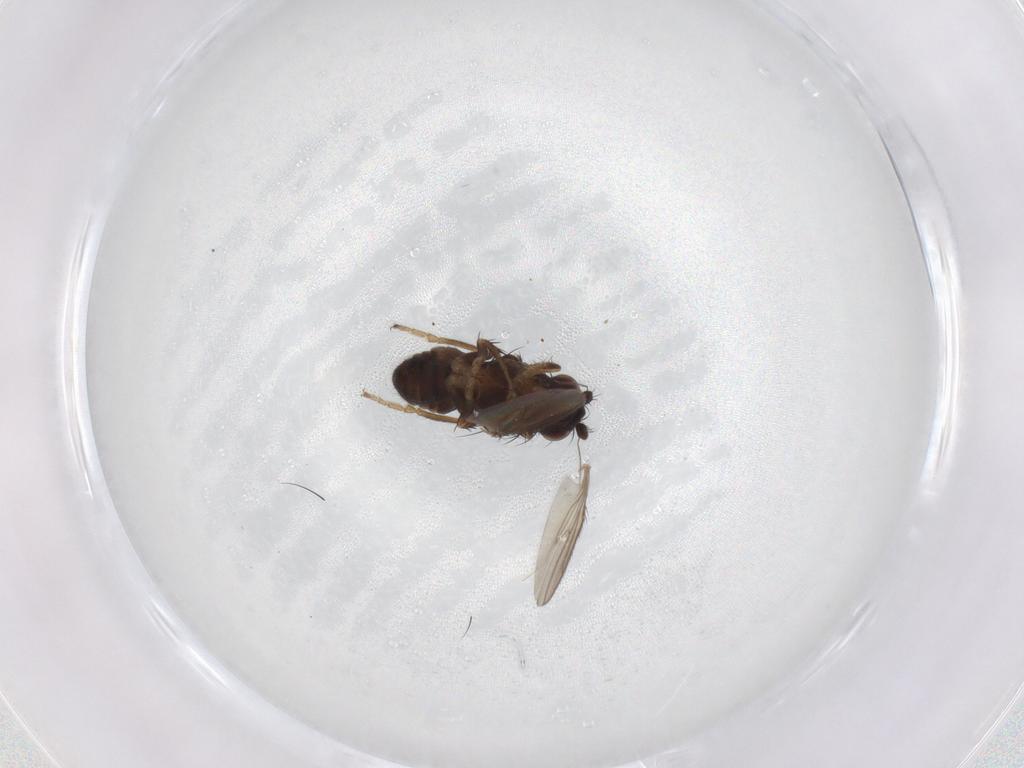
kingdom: Animalia
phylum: Arthropoda
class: Insecta
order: Diptera
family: Sphaeroceridae
